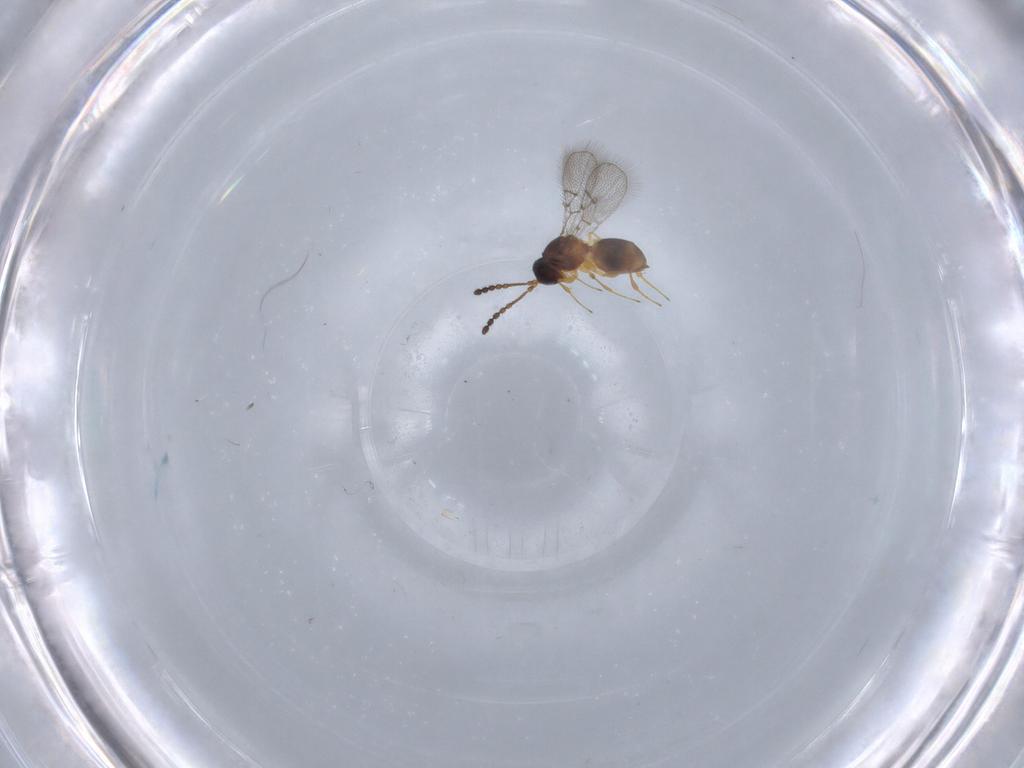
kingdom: Animalia
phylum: Arthropoda
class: Insecta
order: Hymenoptera
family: Figitidae
